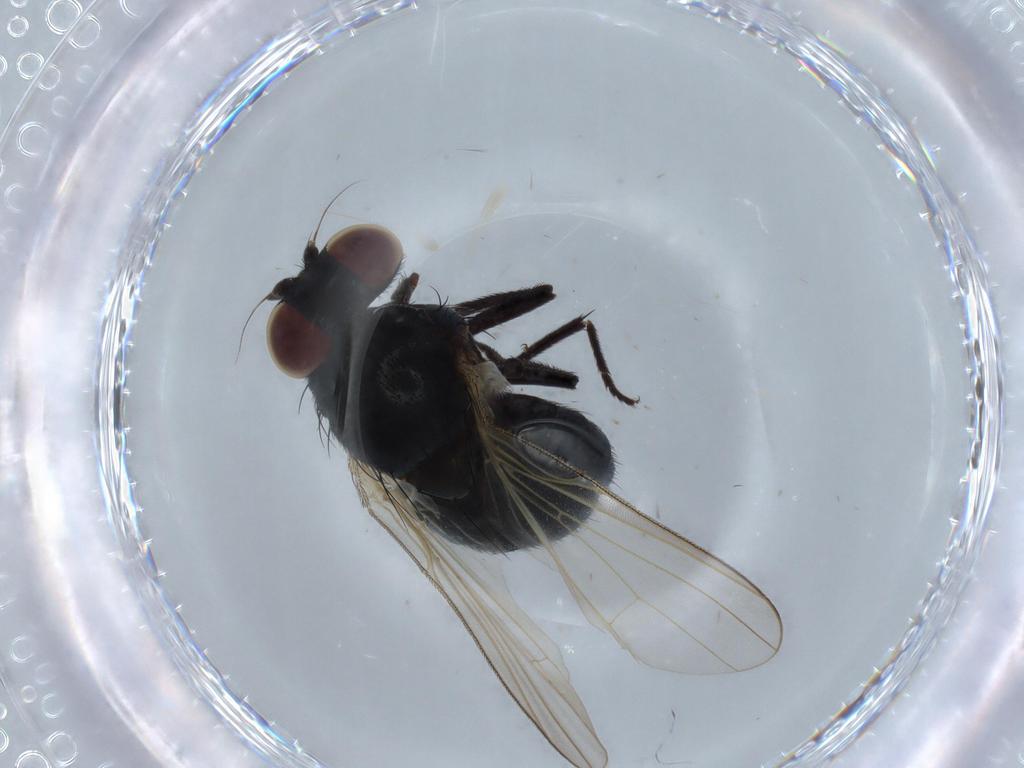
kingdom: Animalia
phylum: Arthropoda
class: Insecta
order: Diptera
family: Lonchaeidae
